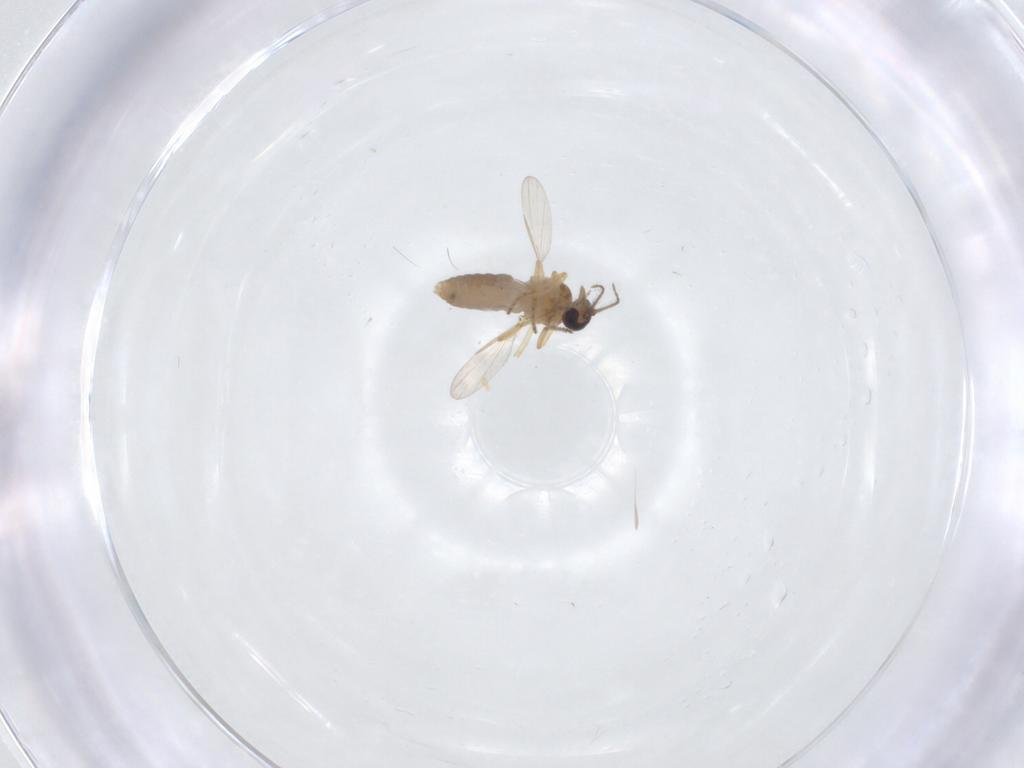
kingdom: Animalia
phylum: Arthropoda
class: Insecta
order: Diptera
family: Ceratopogonidae
